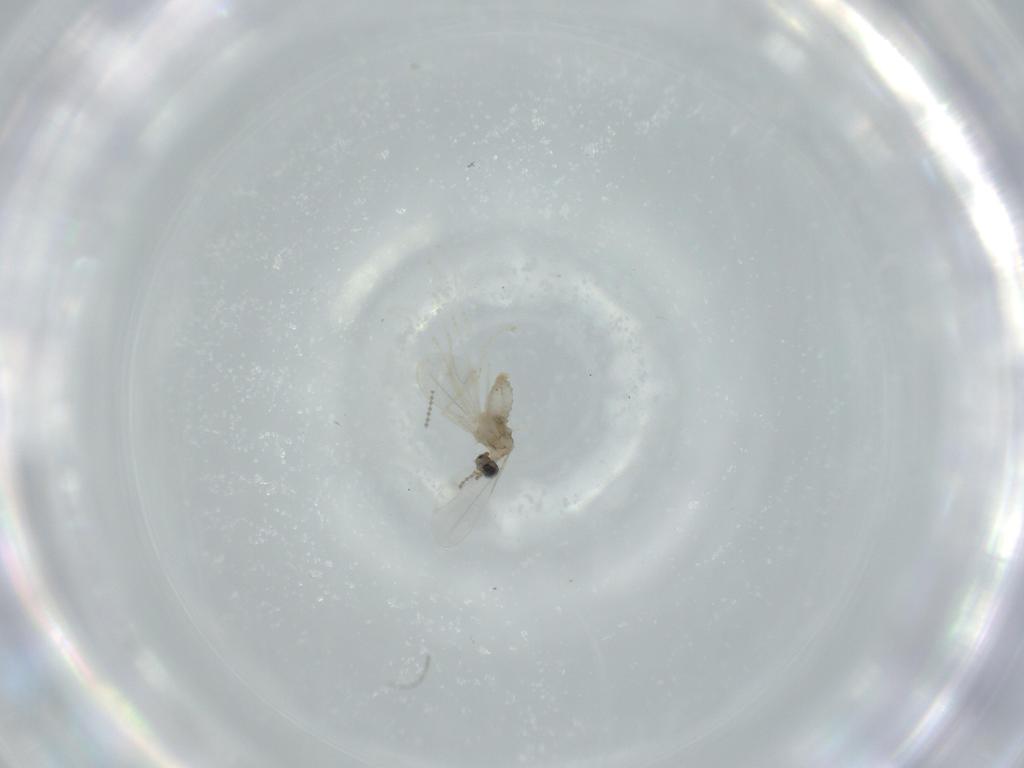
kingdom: Animalia
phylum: Arthropoda
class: Insecta
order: Diptera
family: Cecidomyiidae
